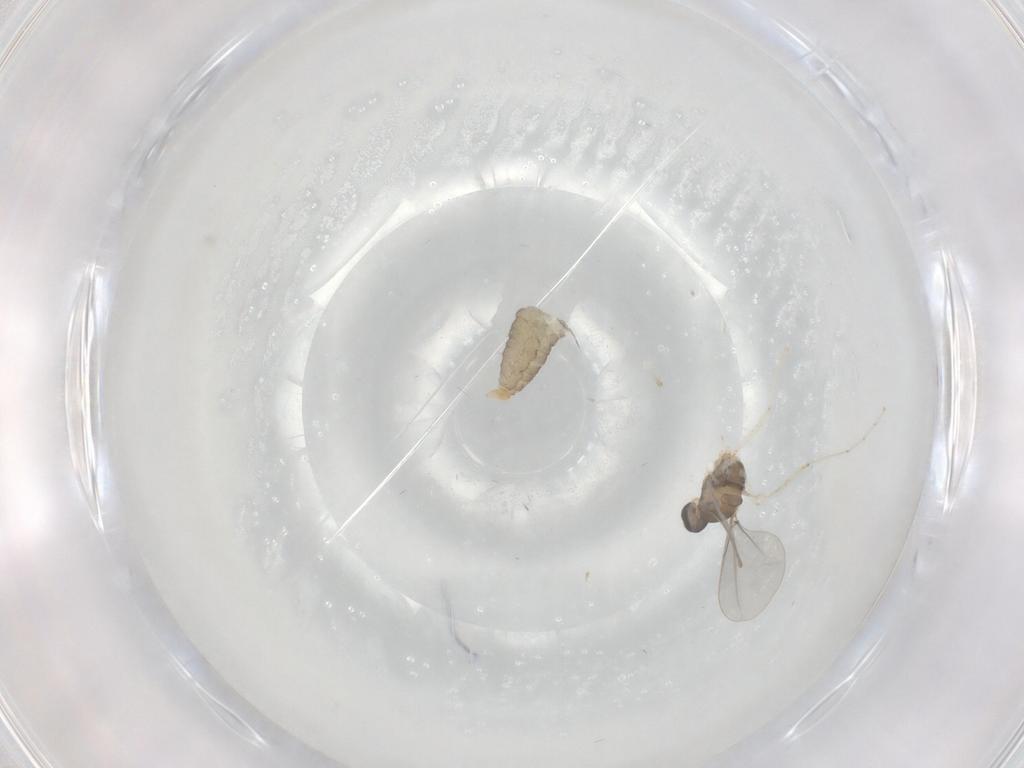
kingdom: Animalia
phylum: Arthropoda
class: Insecta
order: Diptera
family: Cecidomyiidae
